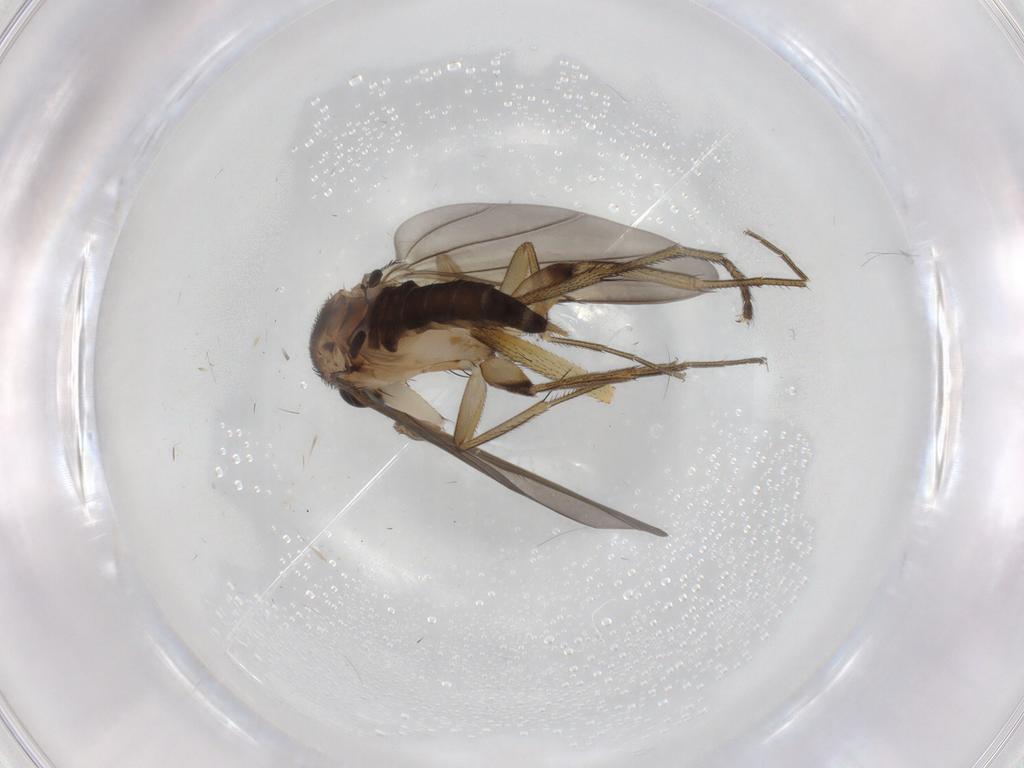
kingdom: Animalia
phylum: Arthropoda
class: Insecta
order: Diptera
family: Phoridae
